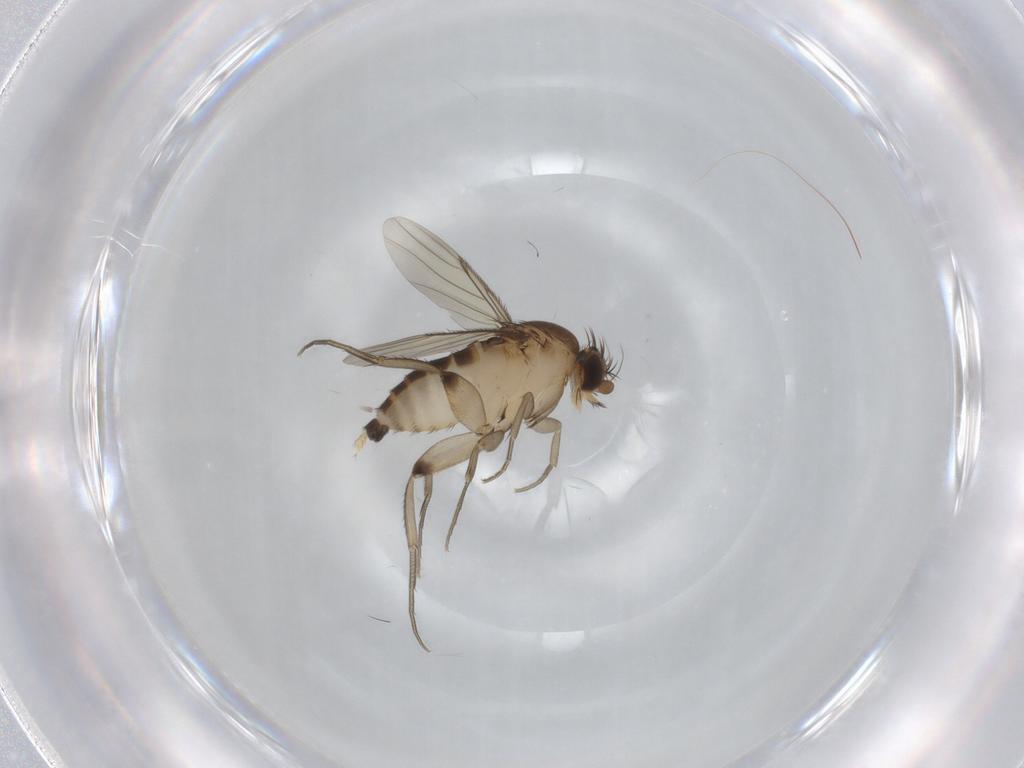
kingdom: Animalia
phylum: Arthropoda
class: Insecta
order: Diptera
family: Phoridae
